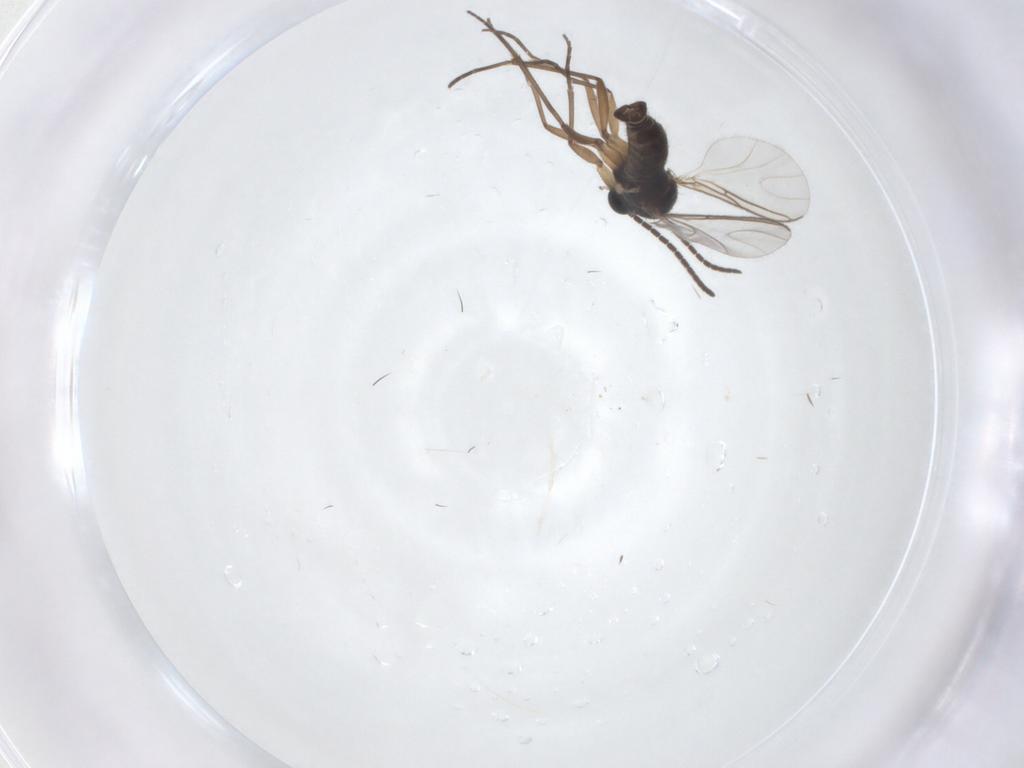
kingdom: Animalia
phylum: Arthropoda
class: Insecta
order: Diptera
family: Sciaridae
